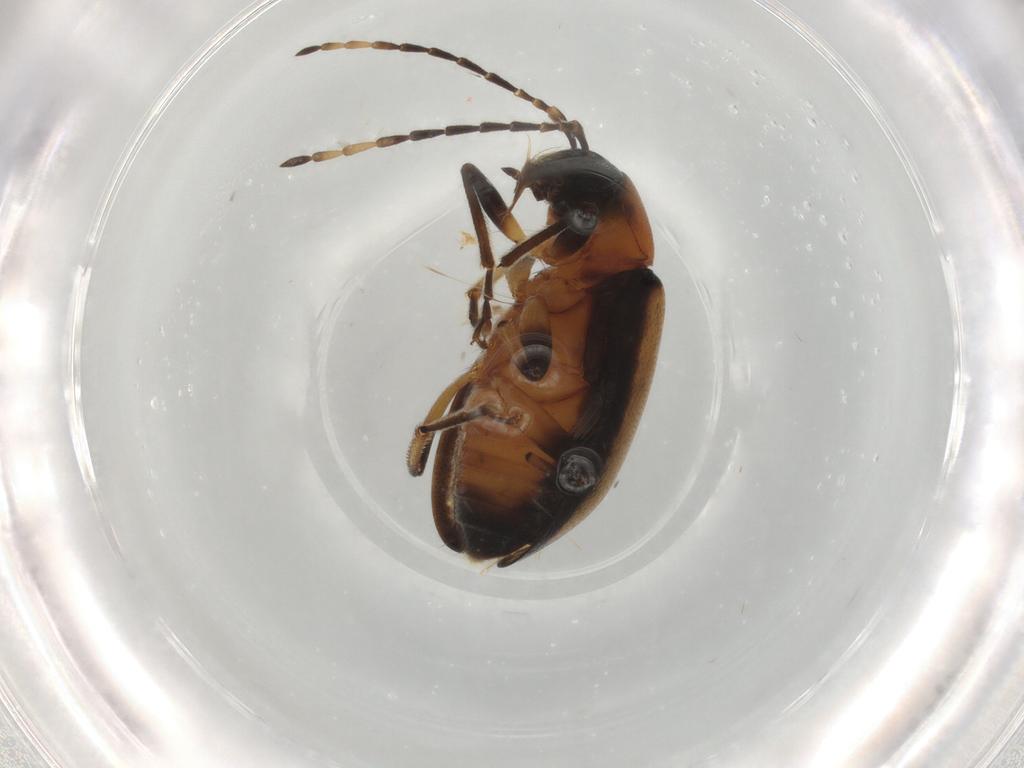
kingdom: Animalia
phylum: Arthropoda
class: Insecta
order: Coleoptera
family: Chrysomelidae
